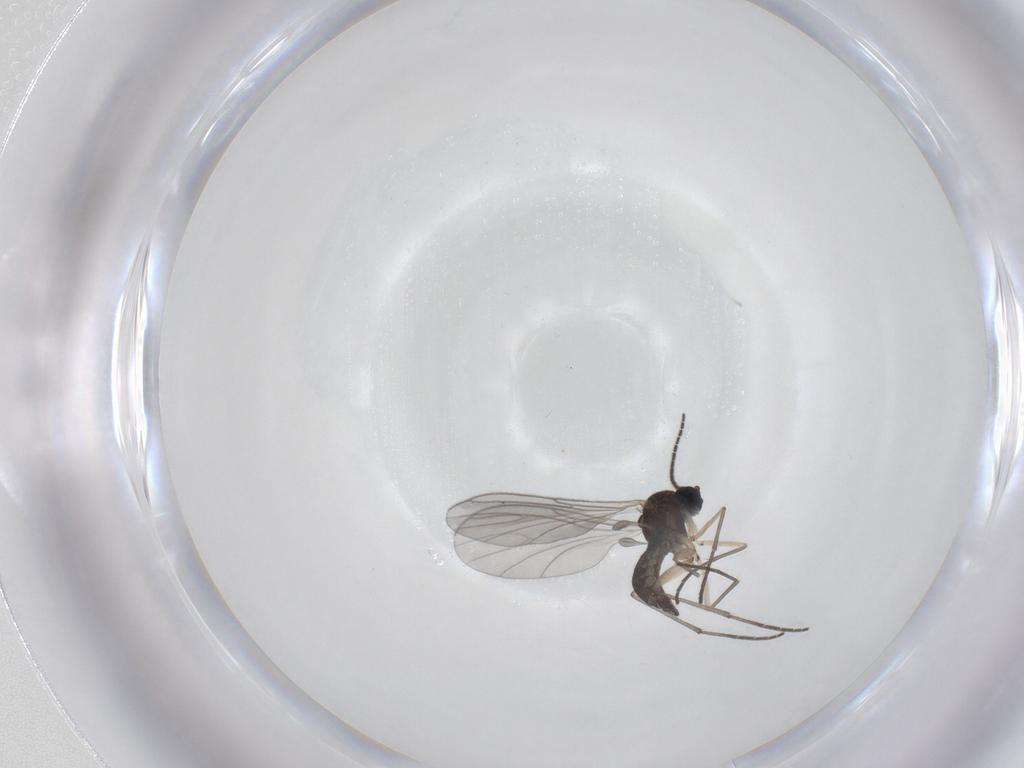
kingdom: Animalia
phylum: Arthropoda
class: Insecta
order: Diptera
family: Sciaridae
